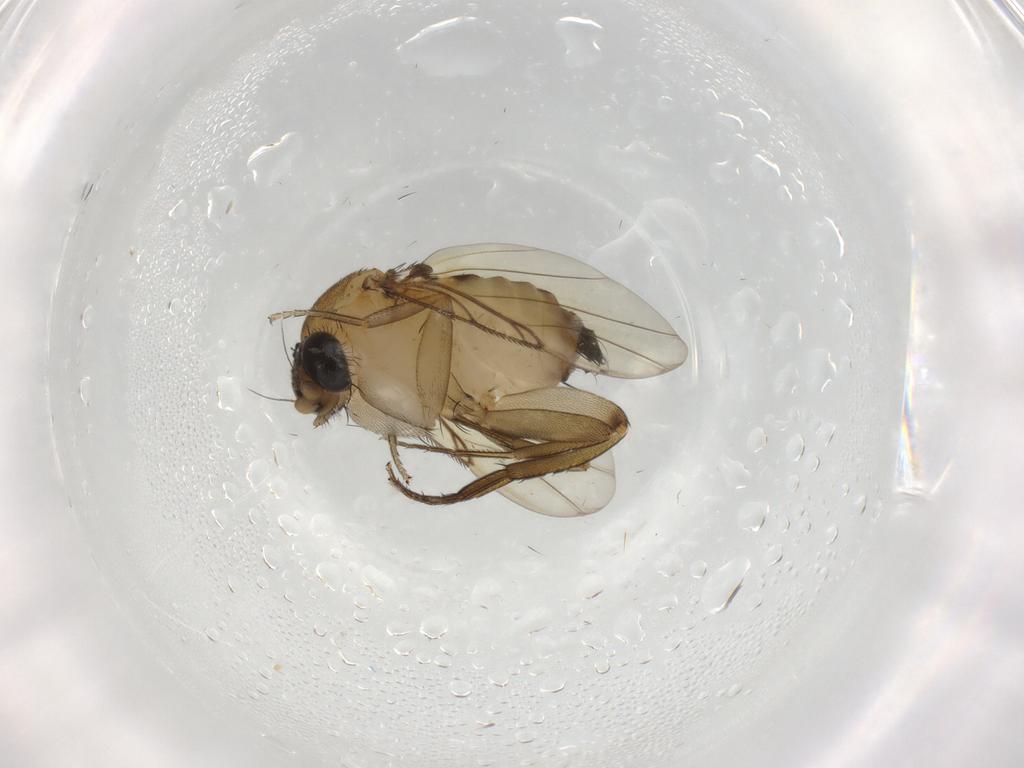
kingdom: Animalia
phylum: Arthropoda
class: Insecta
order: Diptera
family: Phoridae
